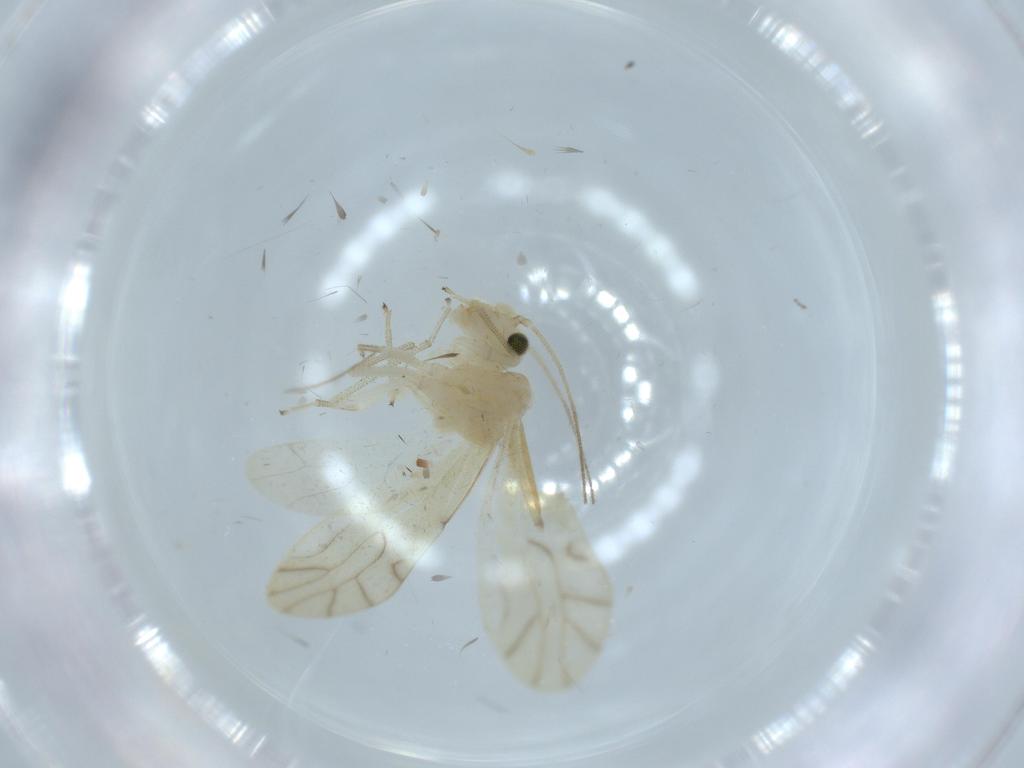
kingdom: Animalia
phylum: Arthropoda
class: Insecta
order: Psocodea
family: Caeciliusidae
